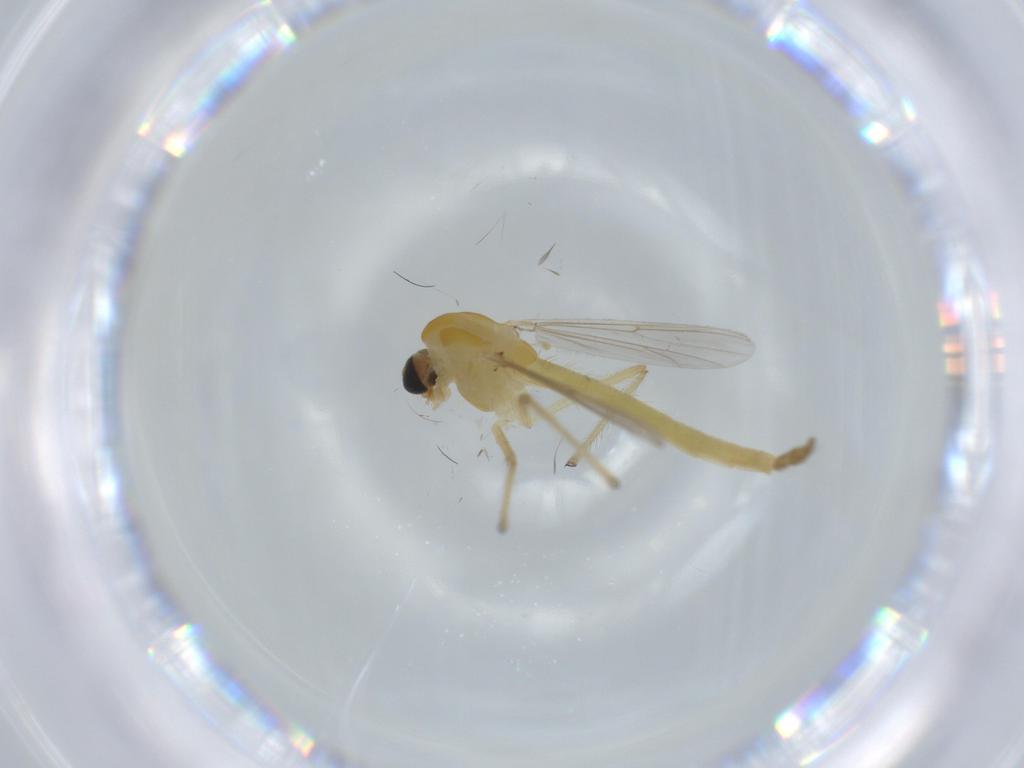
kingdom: Animalia
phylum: Arthropoda
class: Insecta
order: Diptera
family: Chironomidae
